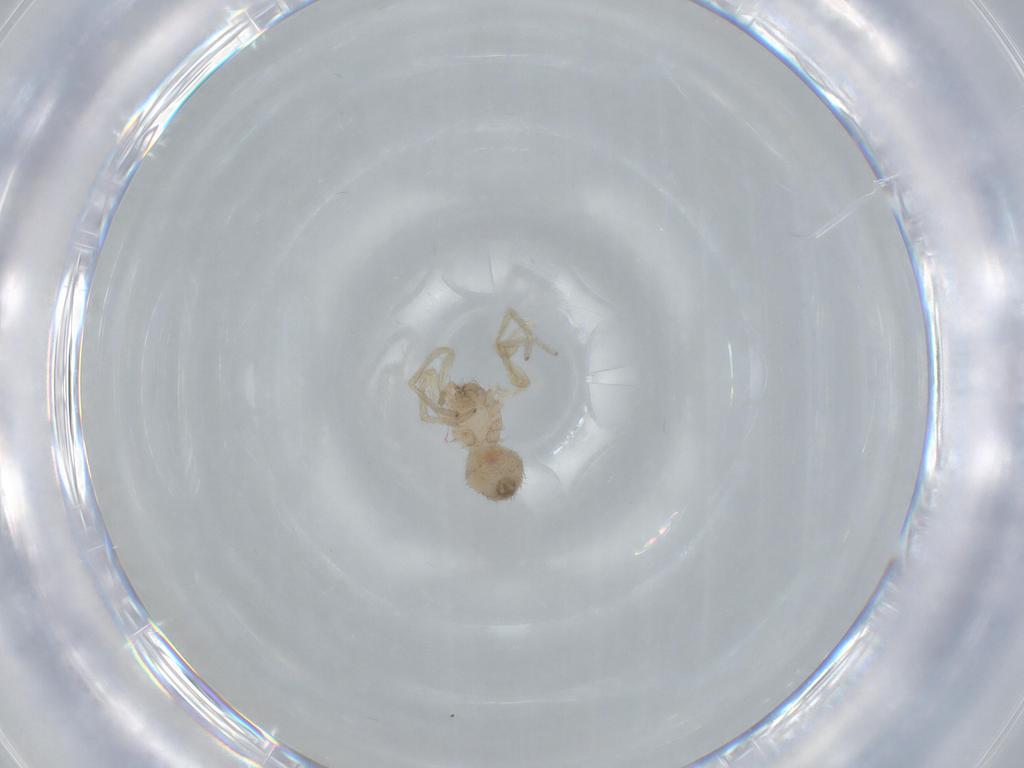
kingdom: Animalia
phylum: Arthropoda
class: Arachnida
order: Araneae
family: Oonopidae
